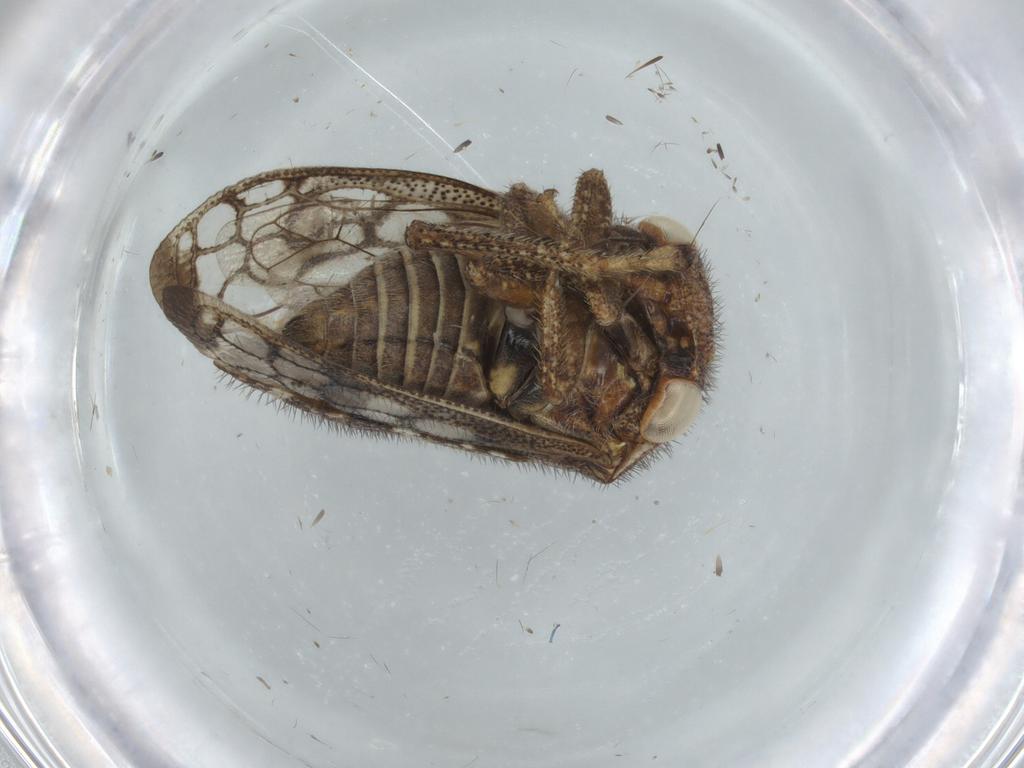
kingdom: Animalia
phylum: Arthropoda
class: Insecta
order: Hemiptera
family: Membracidae
